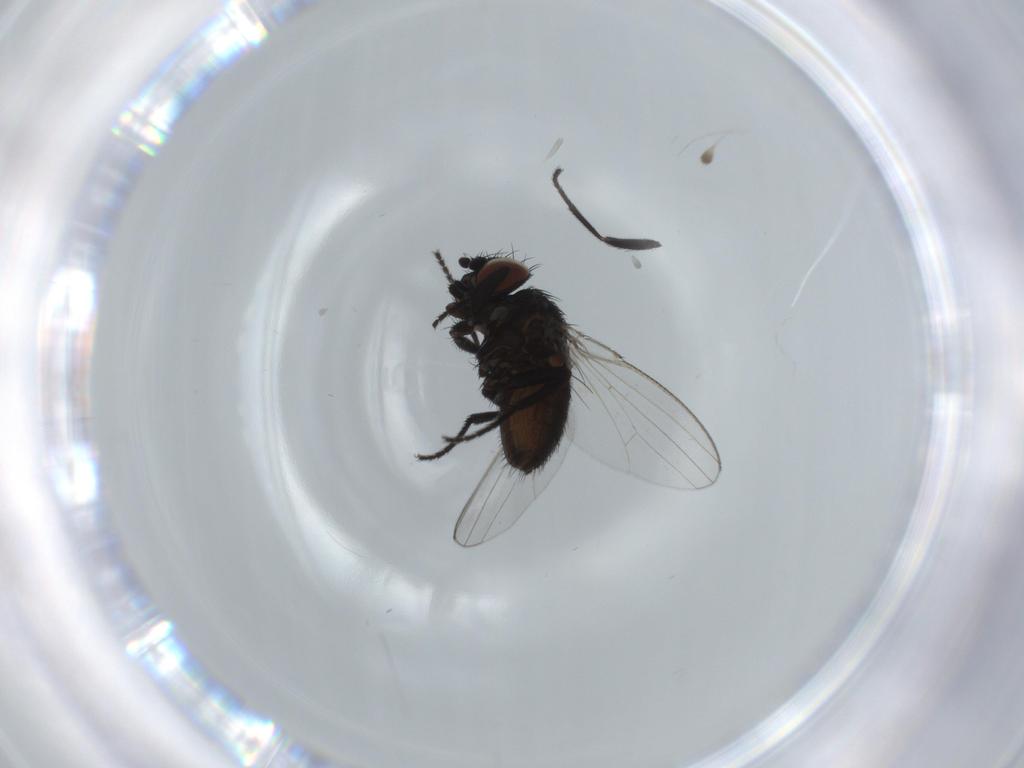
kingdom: Animalia
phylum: Arthropoda
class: Insecta
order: Diptera
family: Milichiidae
